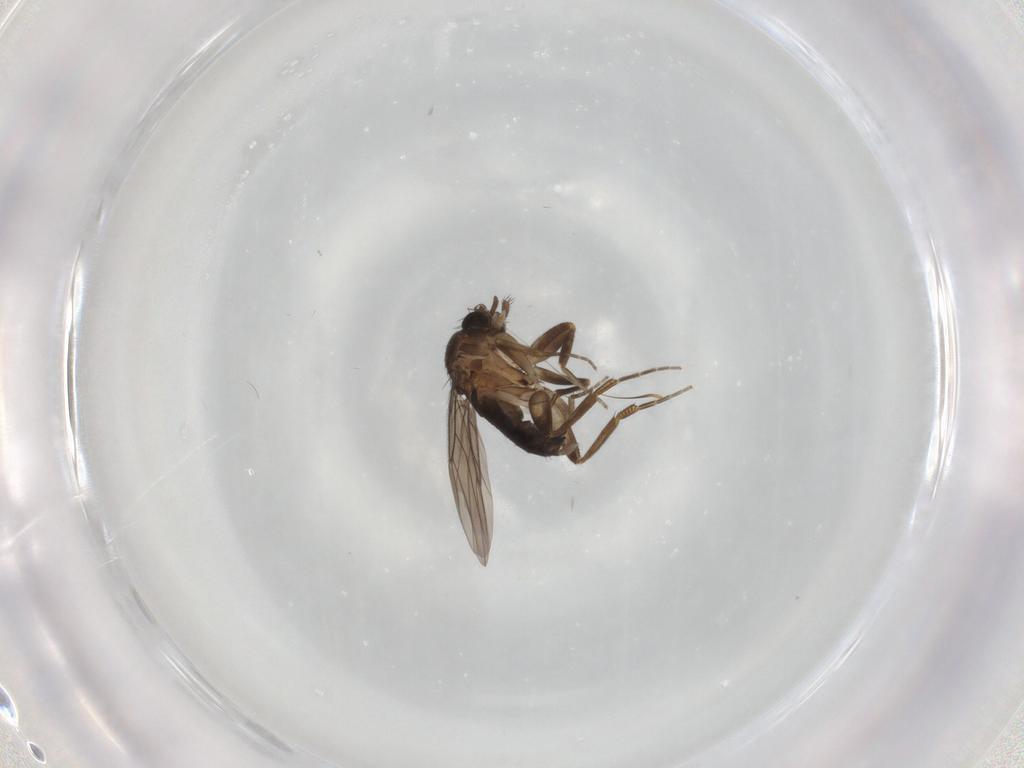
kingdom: Animalia
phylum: Arthropoda
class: Insecta
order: Diptera
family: Phoridae
